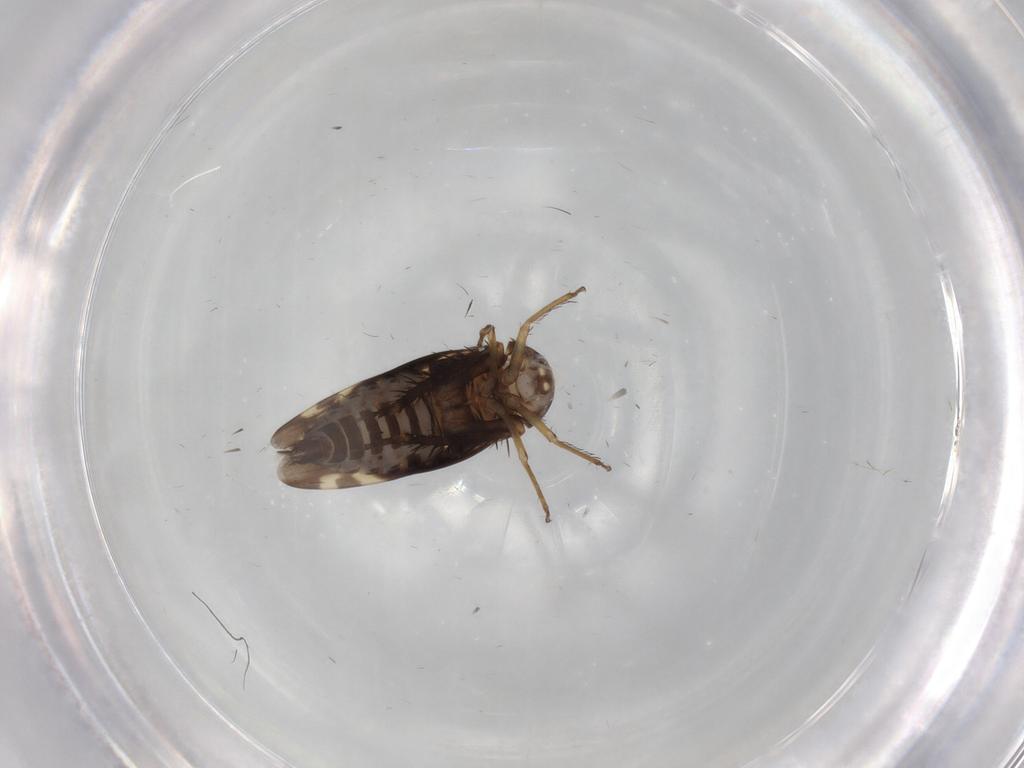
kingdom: Animalia
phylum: Arthropoda
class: Insecta
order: Hemiptera
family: Cicadellidae
